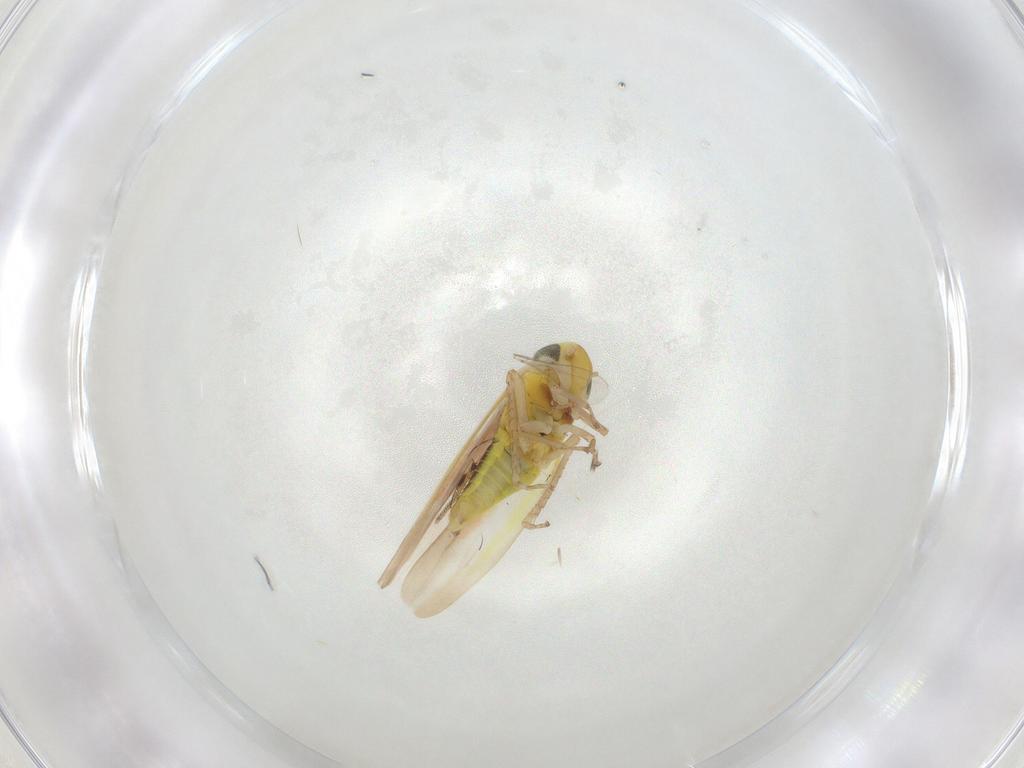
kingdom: Animalia
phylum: Arthropoda
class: Insecta
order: Hemiptera
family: Cicadellidae
